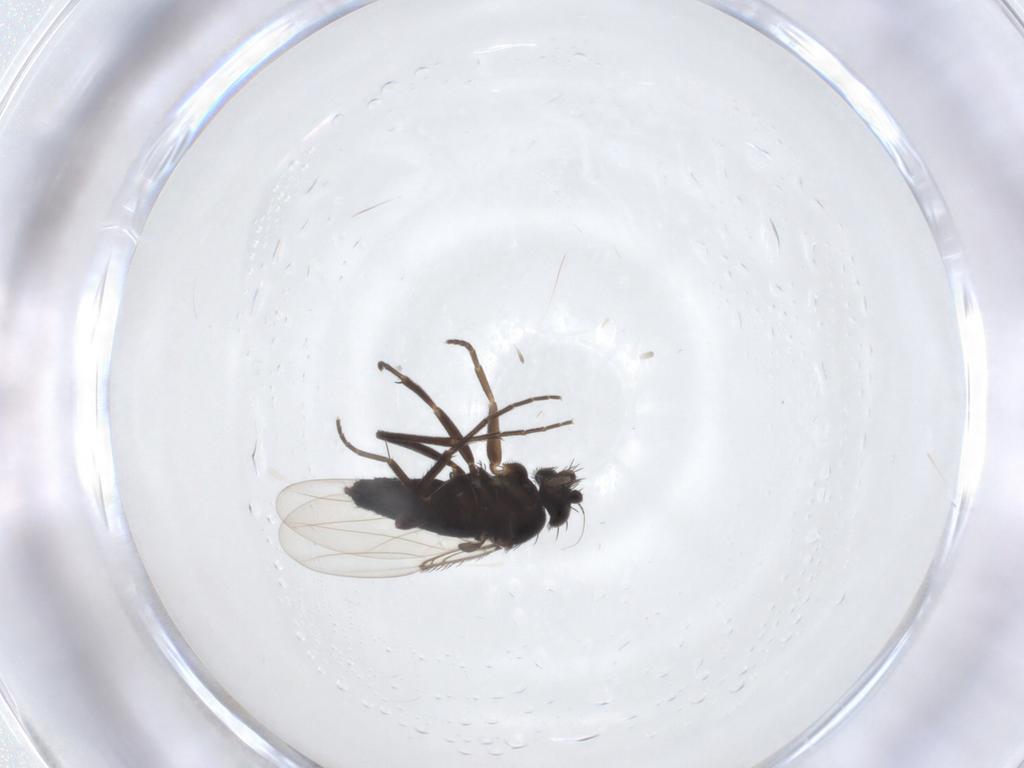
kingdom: Animalia
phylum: Arthropoda
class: Insecta
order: Diptera
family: Phoridae
